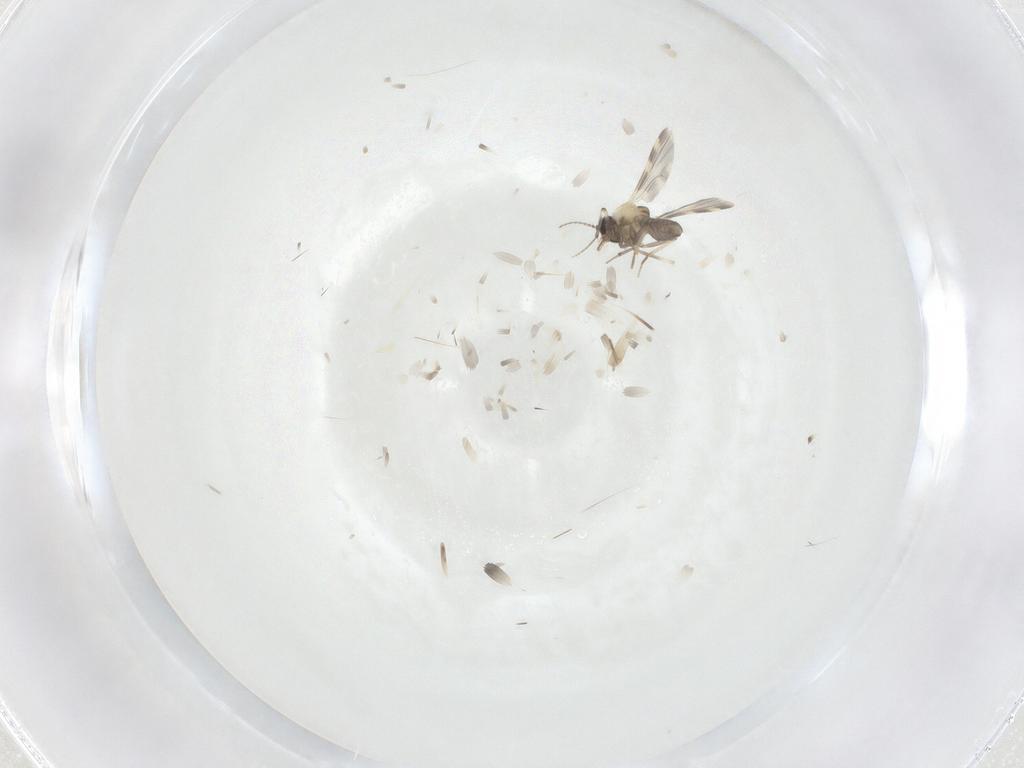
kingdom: Animalia
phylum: Arthropoda
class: Insecta
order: Diptera
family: Ceratopogonidae
